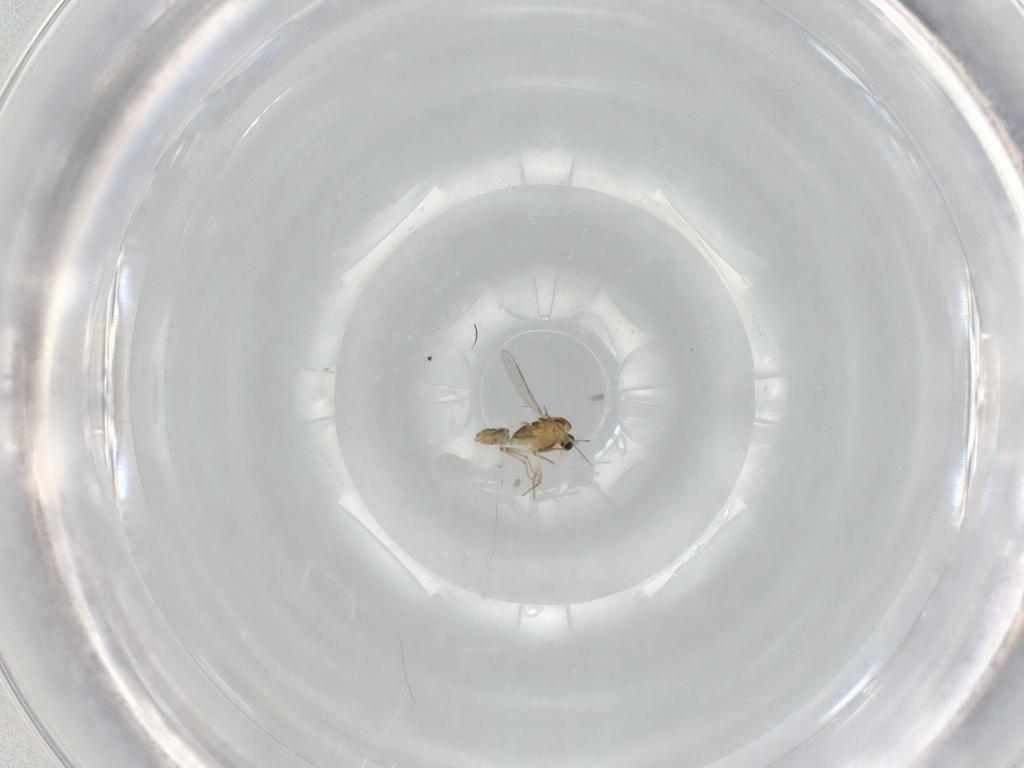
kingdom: Animalia
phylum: Arthropoda
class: Insecta
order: Diptera
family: Chironomidae
